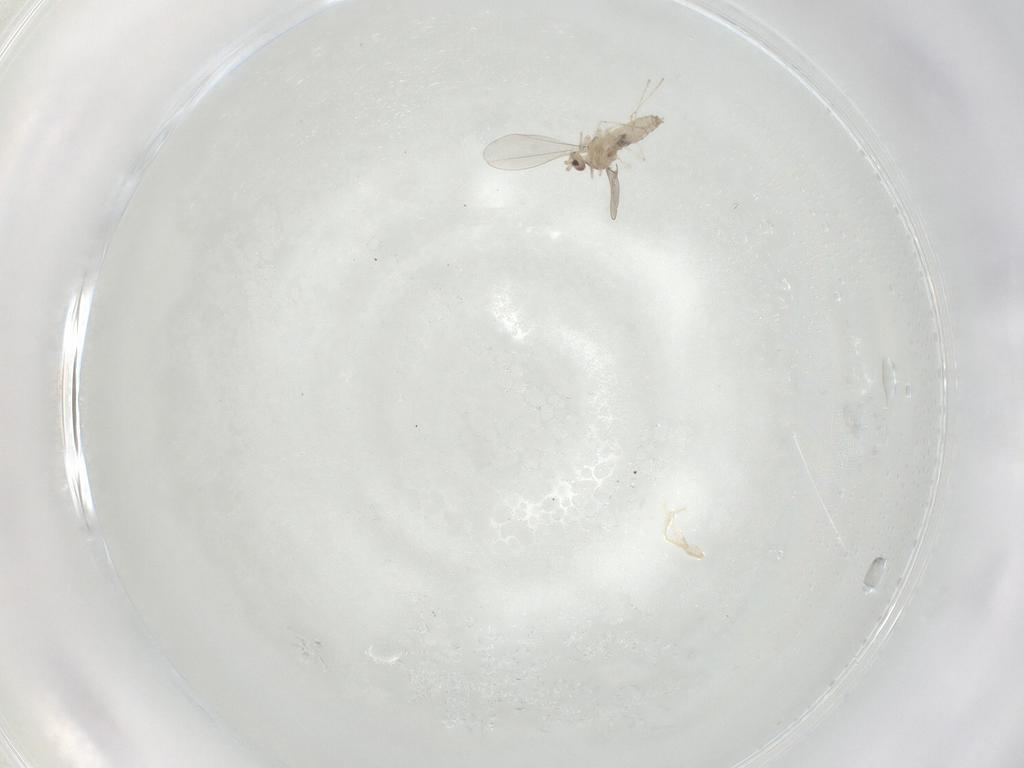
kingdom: Animalia
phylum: Arthropoda
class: Insecta
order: Diptera
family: Cecidomyiidae
